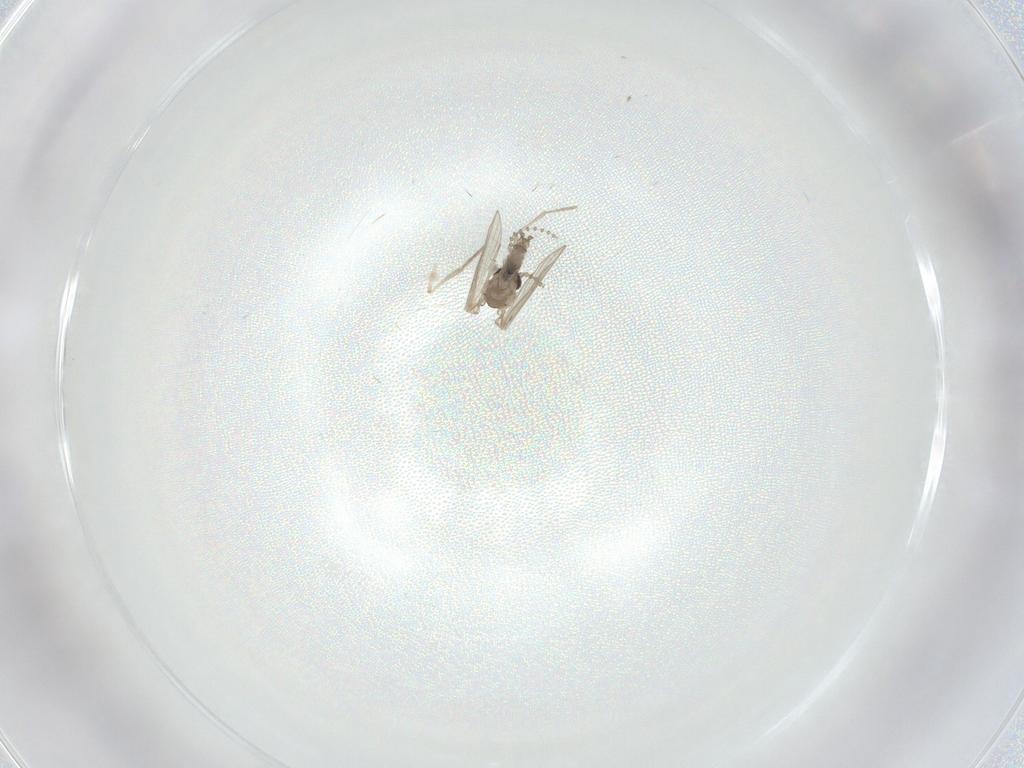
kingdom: Animalia
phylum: Arthropoda
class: Insecta
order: Diptera
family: Psychodidae
